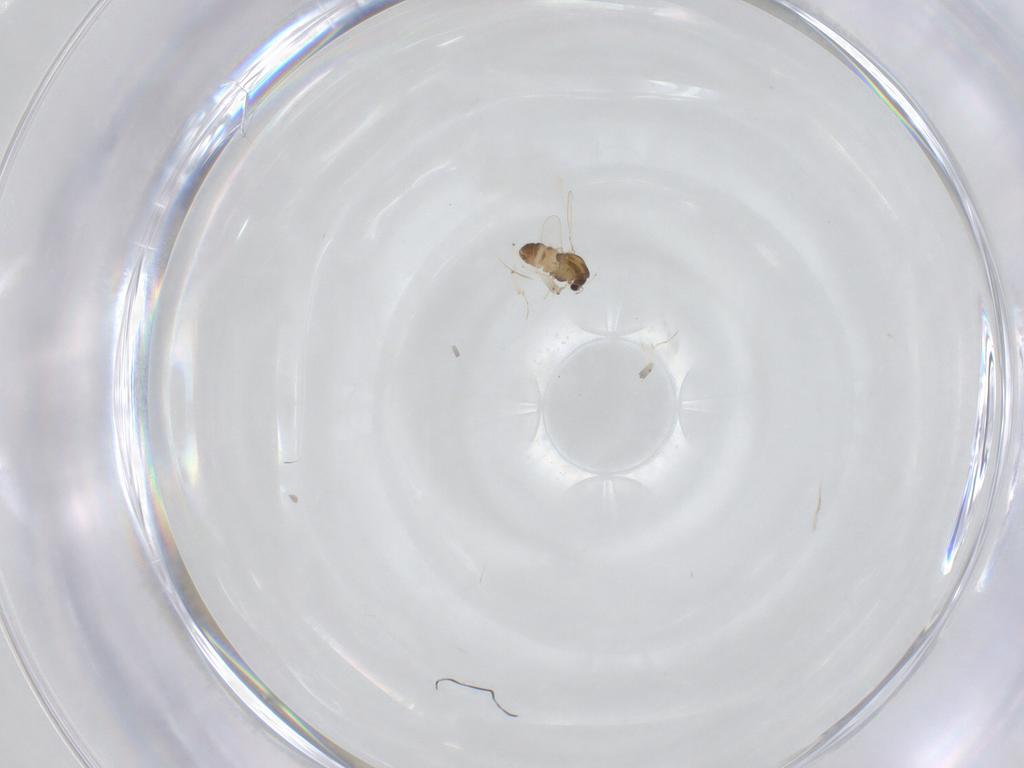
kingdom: Animalia
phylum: Arthropoda
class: Insecta
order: Diptera
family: Chironomidae
